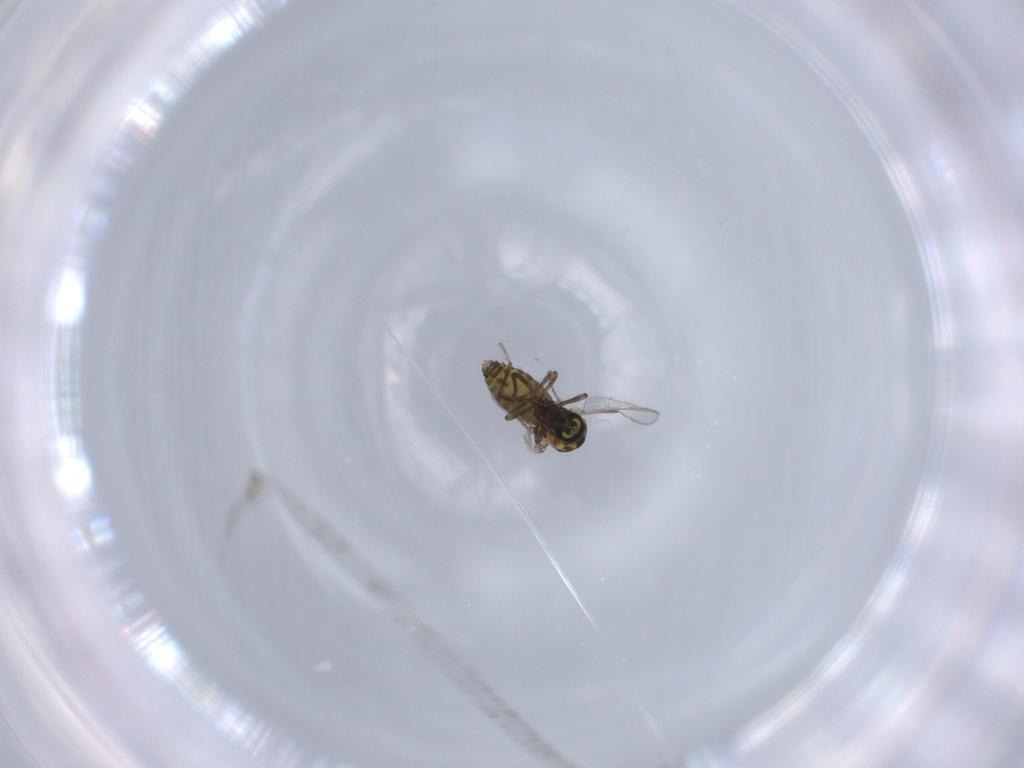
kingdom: Animalia
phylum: Arthropoda
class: Insecta
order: Diptera
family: Ceratopogonidae
